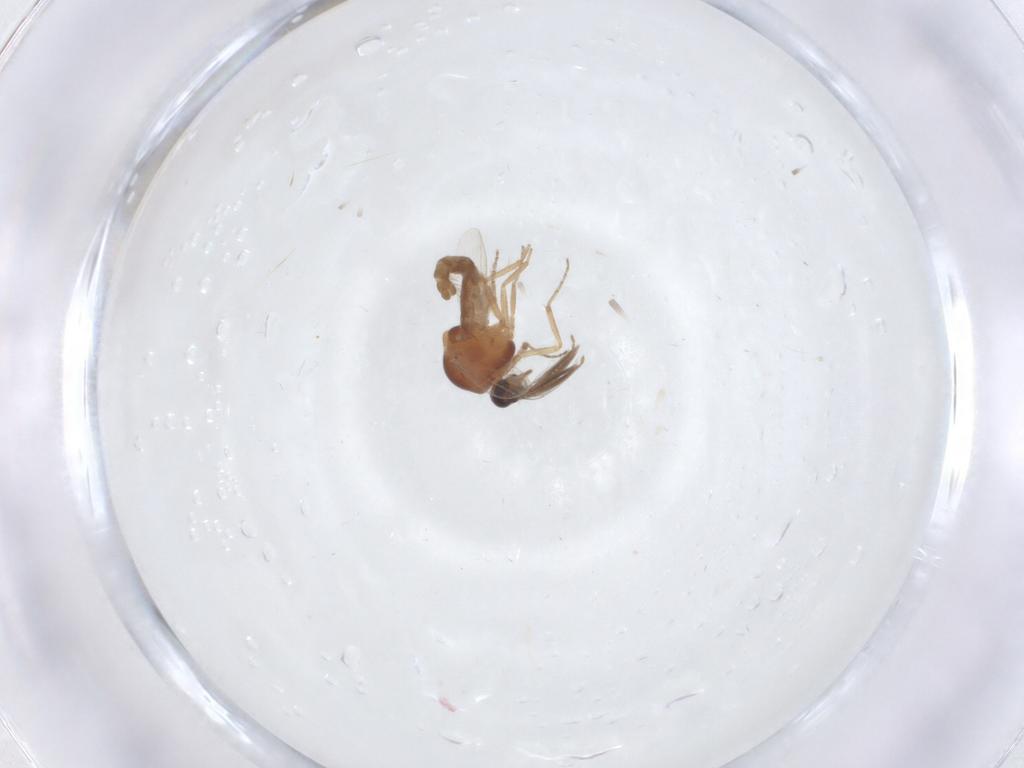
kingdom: Animalia
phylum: Arthropoda
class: Insecta
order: Diptera
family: Ceratopogonidae
